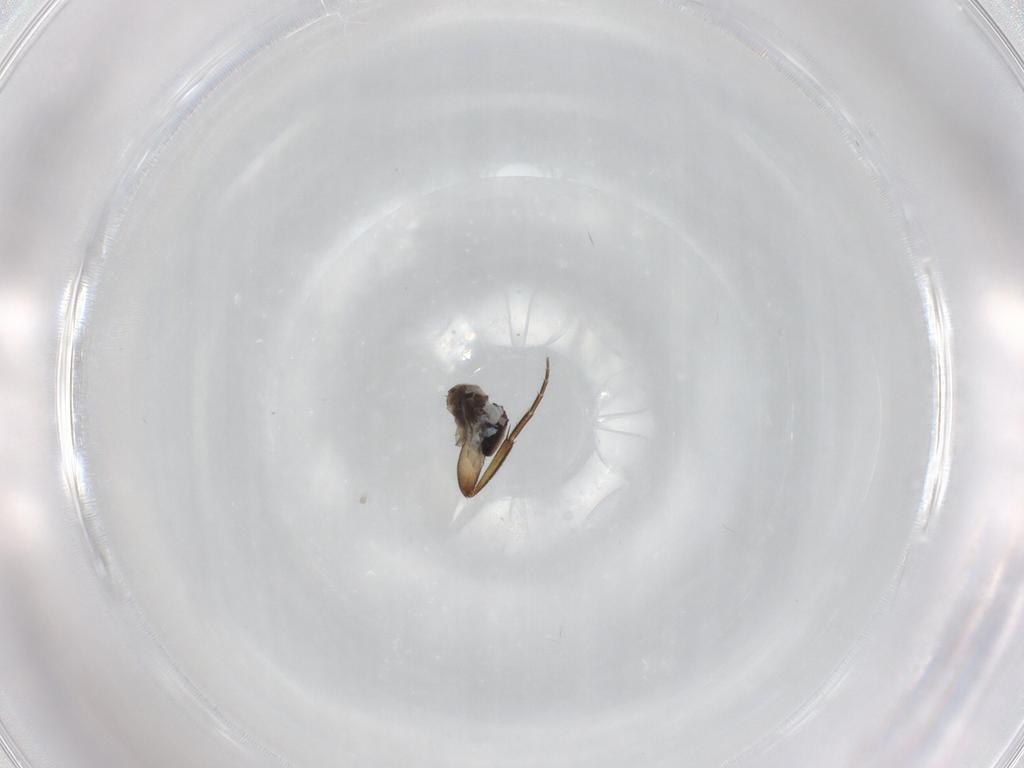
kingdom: Animalia
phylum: Arthropoda
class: Insecta
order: Diptera
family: Phoridae
